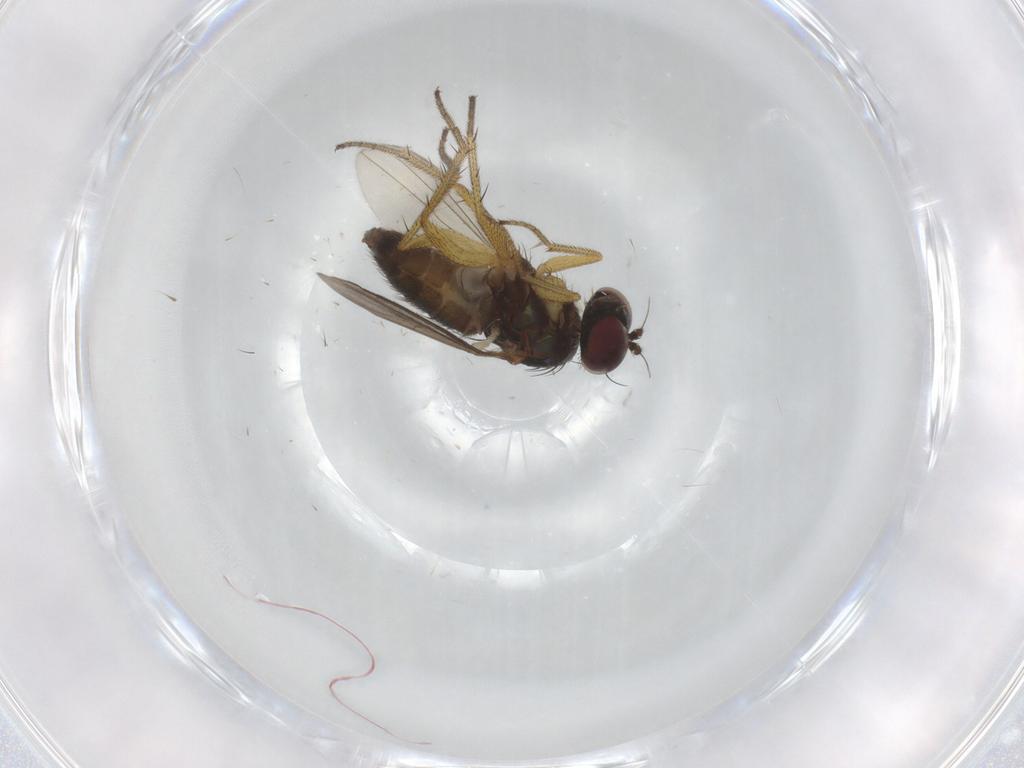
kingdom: Animalia
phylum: Arthropoda
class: Insecta
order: Diptera
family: Dolichopodidae
